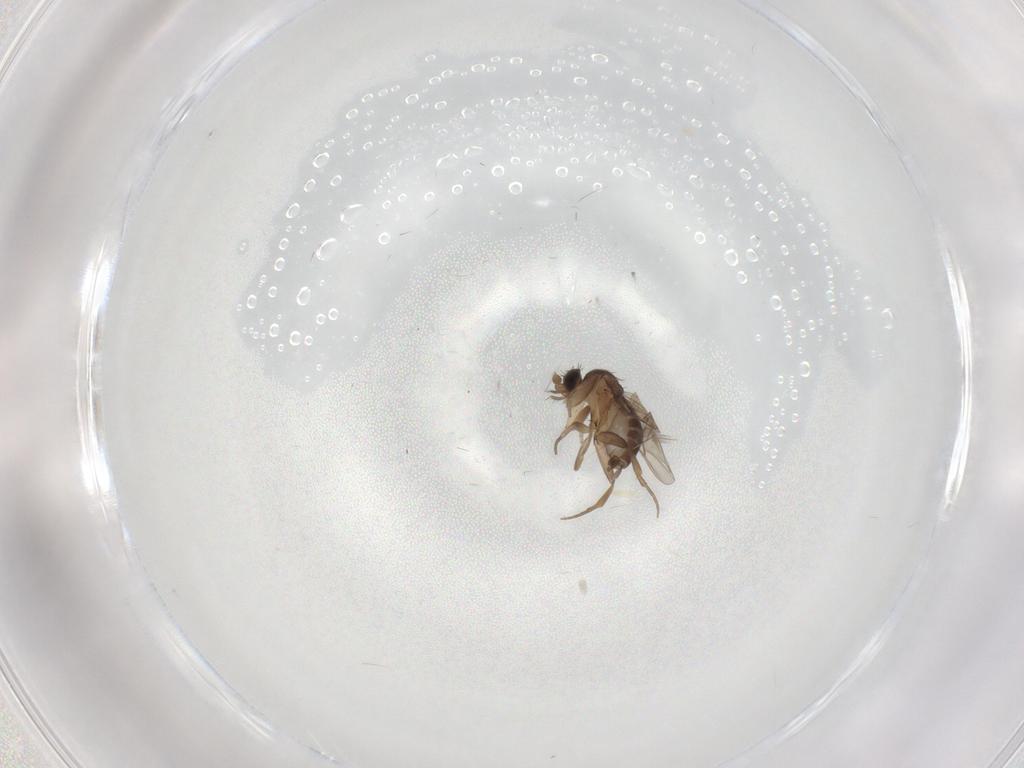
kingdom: Animalia
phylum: Arthropoda
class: Insecta
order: Diptera
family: Phoridae
